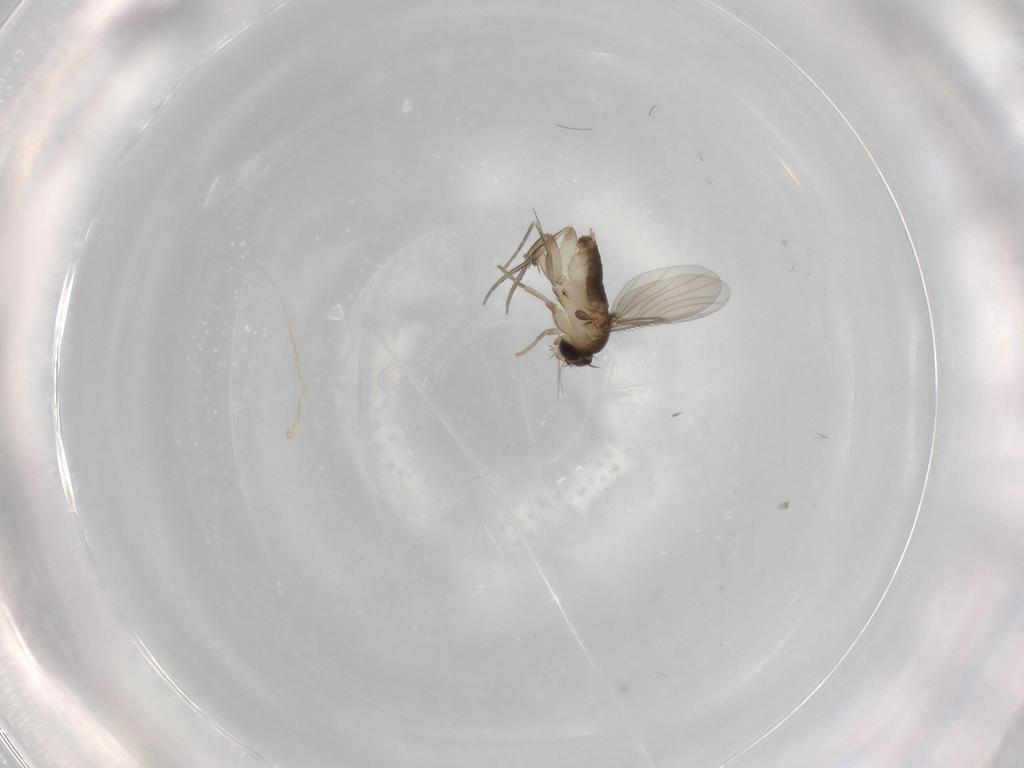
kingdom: Animalia
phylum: Arthropoda
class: Insecta
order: Diptera
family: Phoridae
